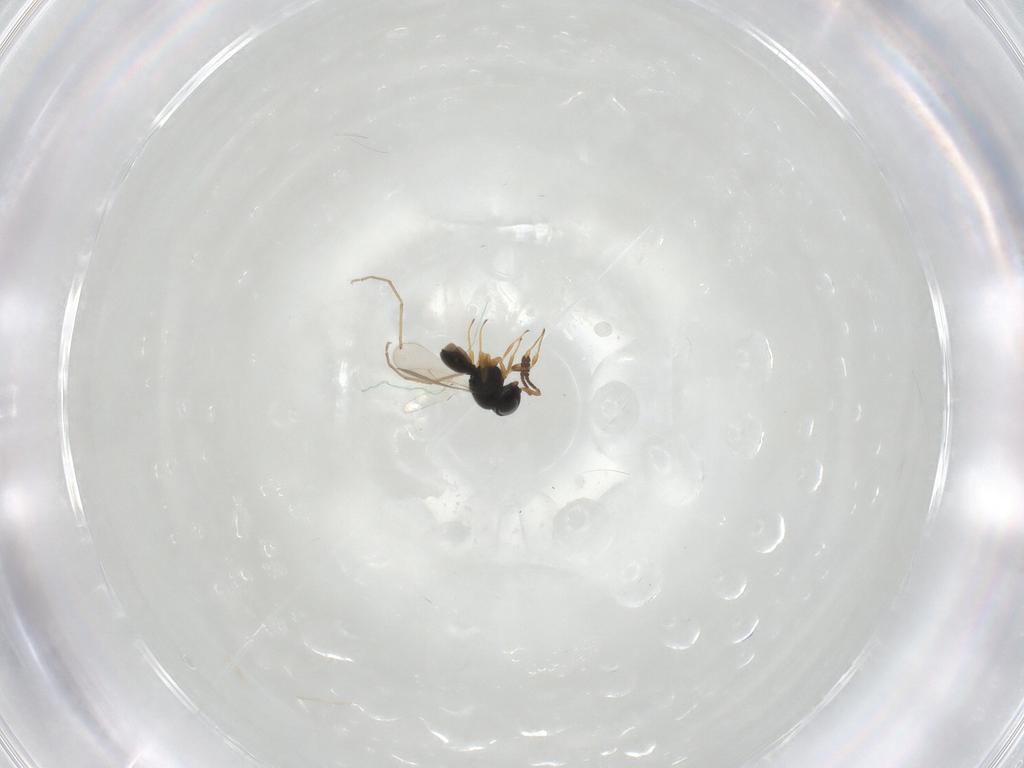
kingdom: Animalia
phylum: Arthropoda
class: Insecta
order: Hymenoptera
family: Scelionidae
